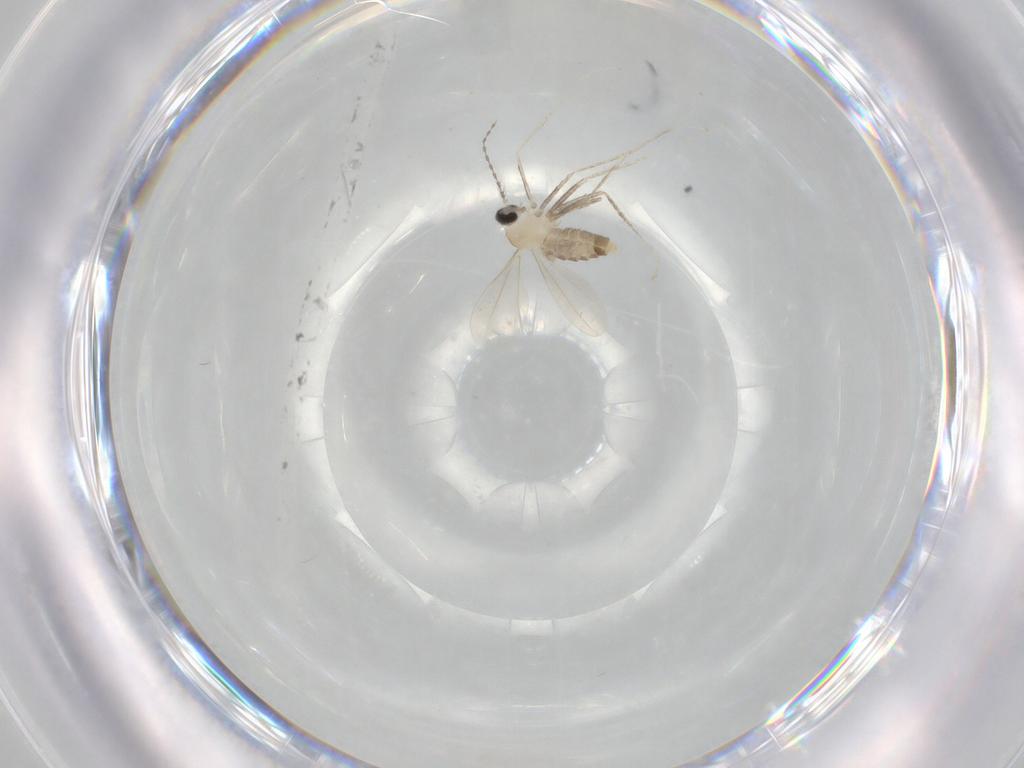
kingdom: Animalia
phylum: Arthropoda
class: Insecta
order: Diptera
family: Cecidomyiidae
